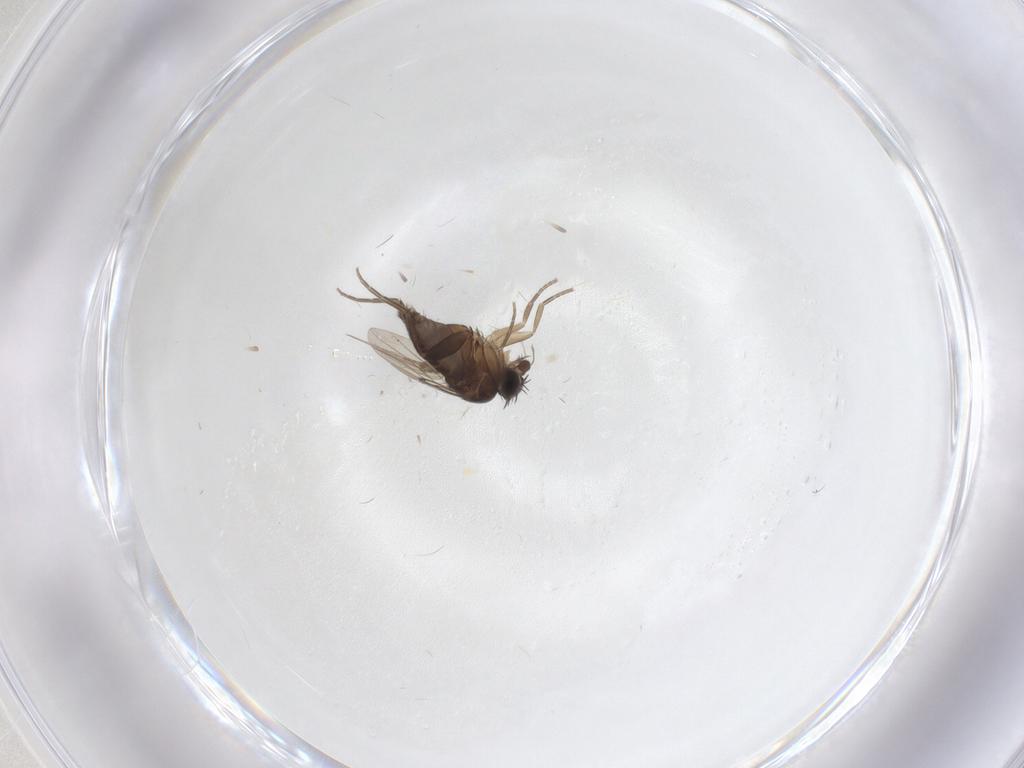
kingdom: Animalia
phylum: Arthropoda
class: Insecta
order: Diptera
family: Phoridae
